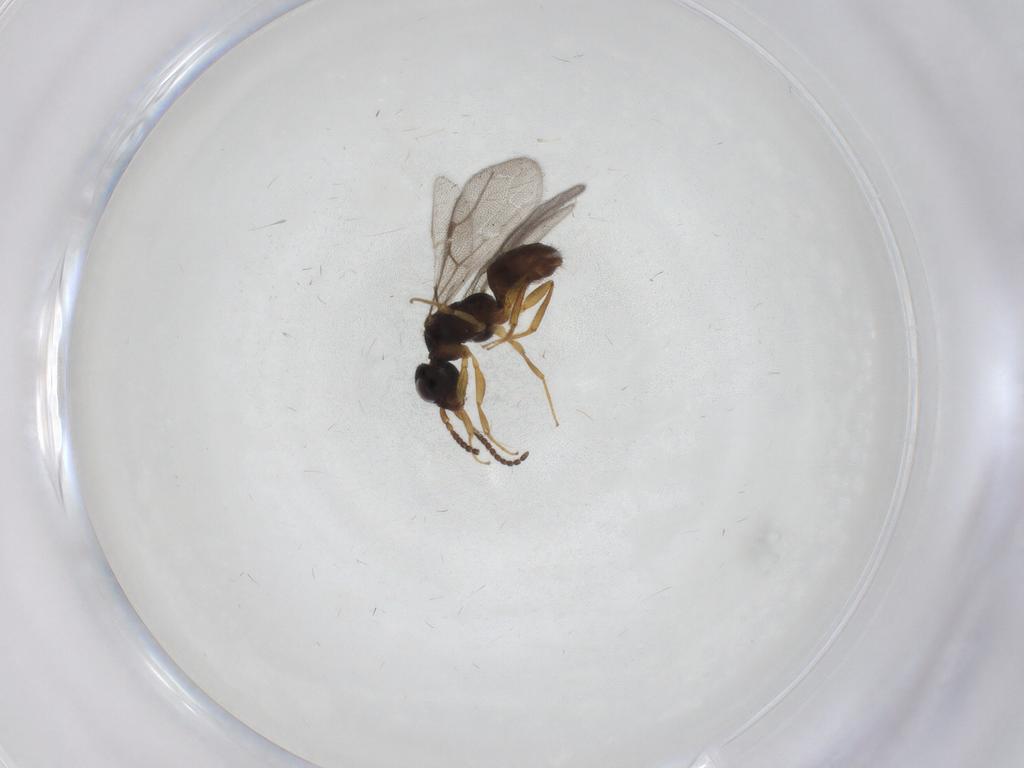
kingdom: Animalia
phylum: Arthropoda
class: Insecta
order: Hymenoptera
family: Bethylidae
